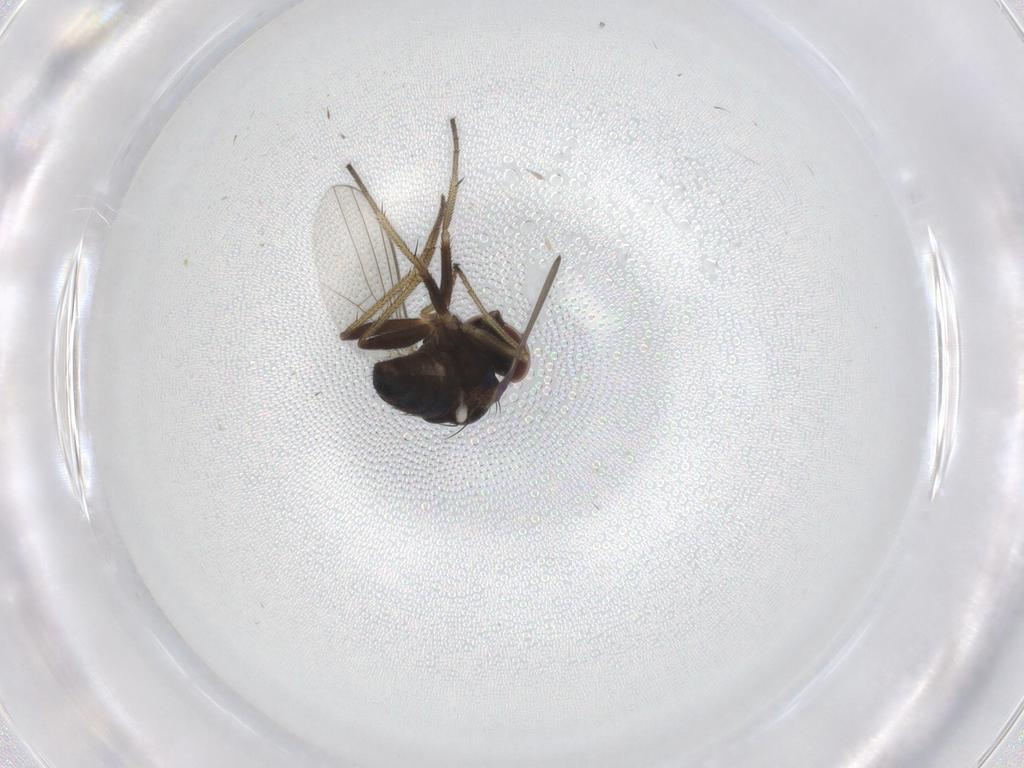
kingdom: Animalia
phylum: Arthropoda
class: Insecta
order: Diptera
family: Dolichopodidae
